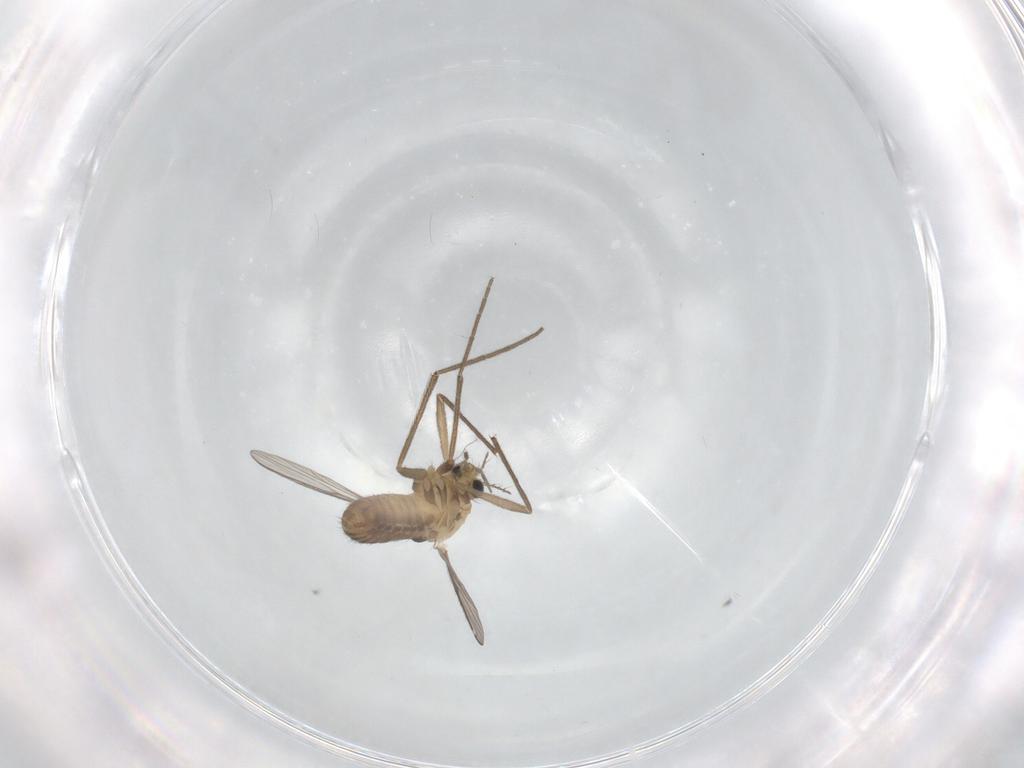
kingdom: Animalia
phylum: Arthropoda
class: Insecta
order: Diptera
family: Chironomidae
